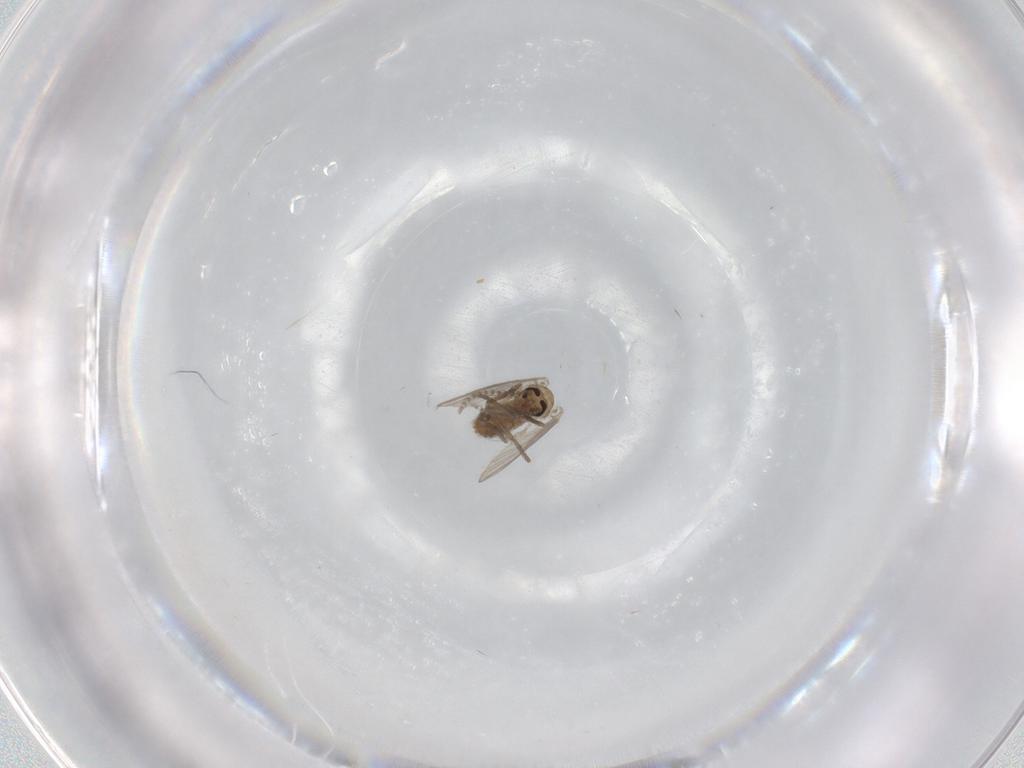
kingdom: Animalia
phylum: Arthropoda
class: Insecta
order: Diptera
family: Psychodidae
